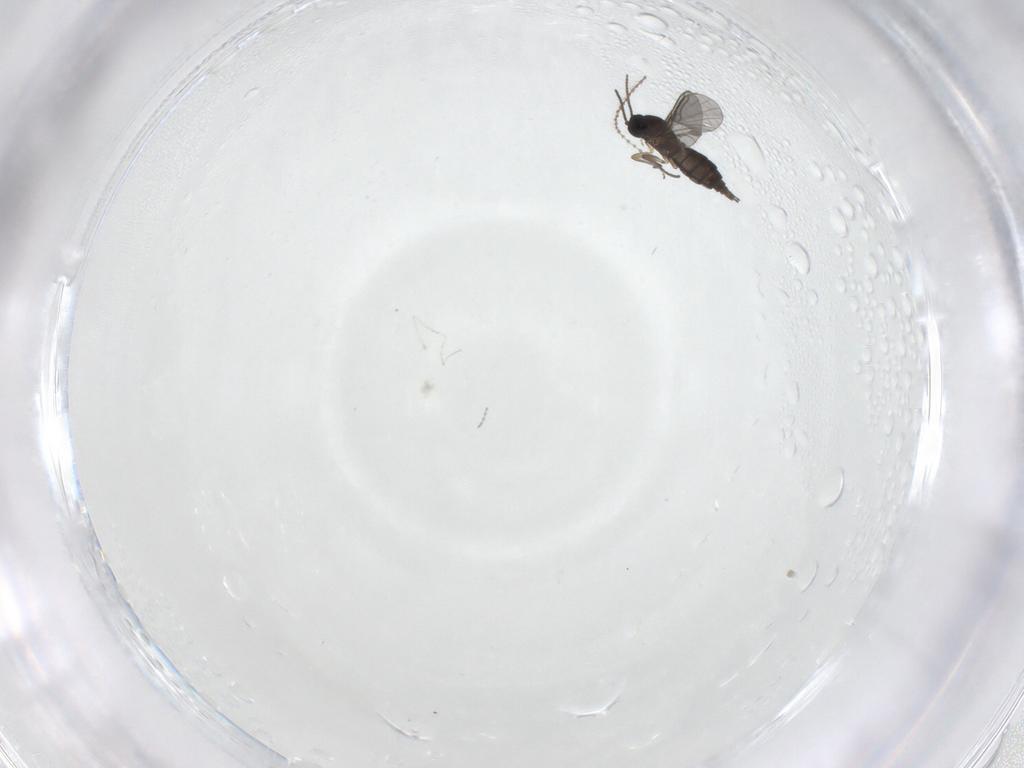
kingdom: Animalia
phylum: Arthropoda
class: Insecta
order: Diptera
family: Sciaridae
